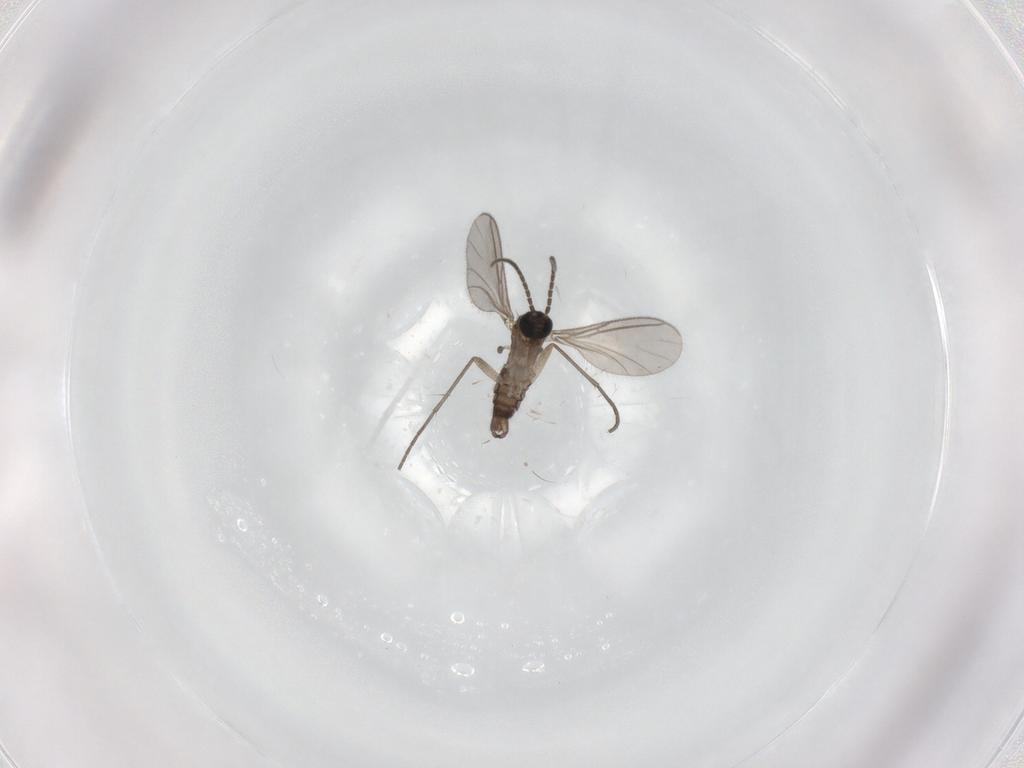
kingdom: Animalia
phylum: Arthropoda
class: Insecta
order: Diptera
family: Sciaridae
